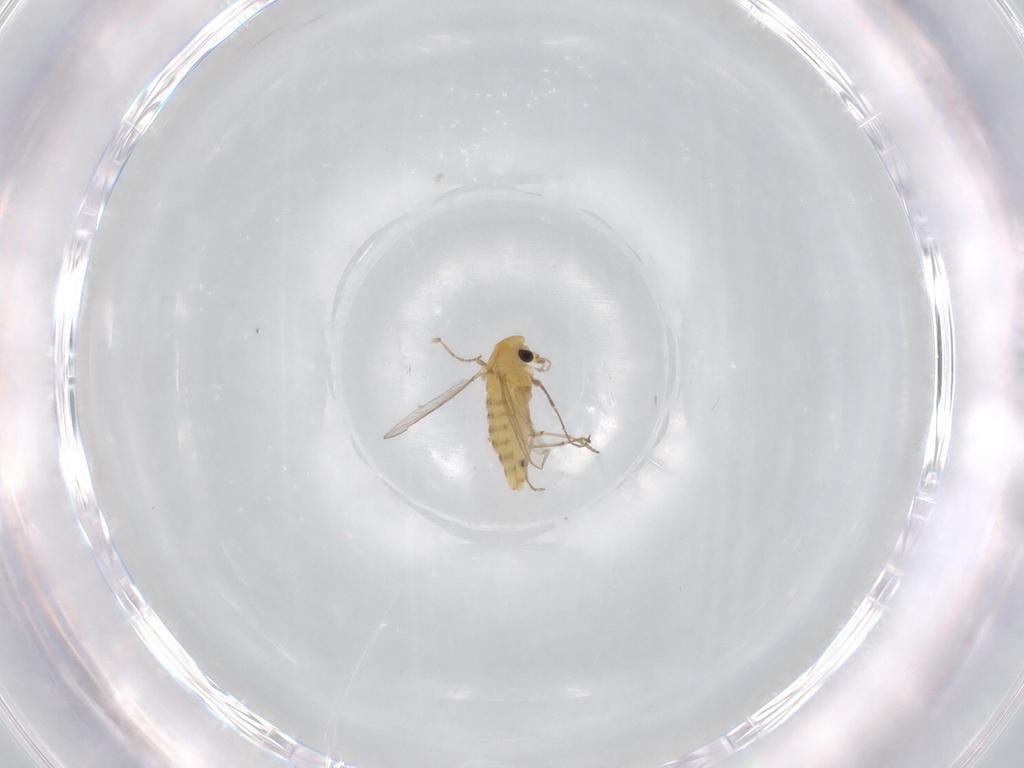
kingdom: Animalia
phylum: Arthropoda
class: Insecta
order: Diptera
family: Chironomidae
